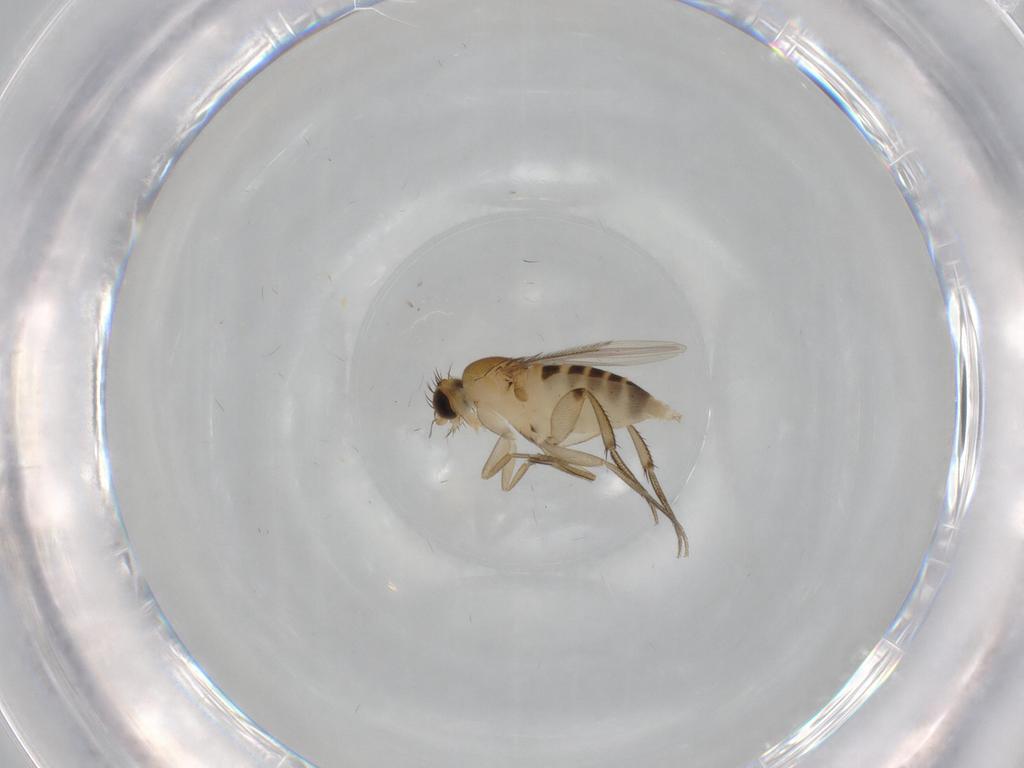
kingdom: Animalia
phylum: Arthropoda
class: Insecta
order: Diptera
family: Phoridae
